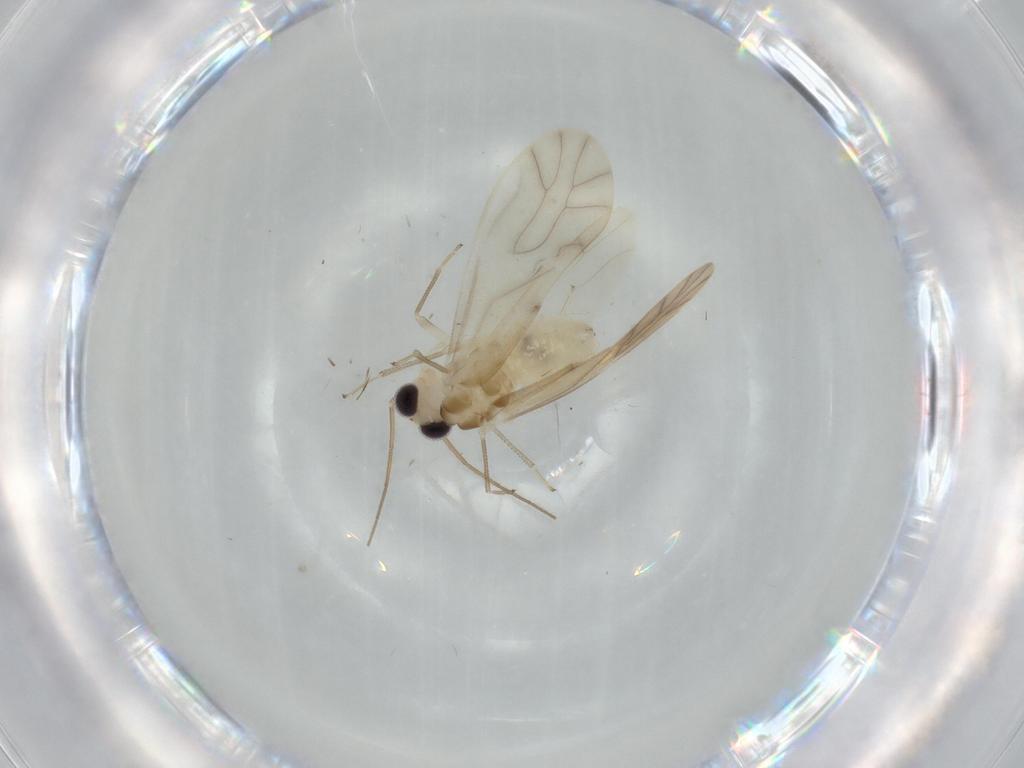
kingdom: Animalia
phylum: Arthropoda
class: Insecta
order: Psocodea
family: Caeciliusidae
